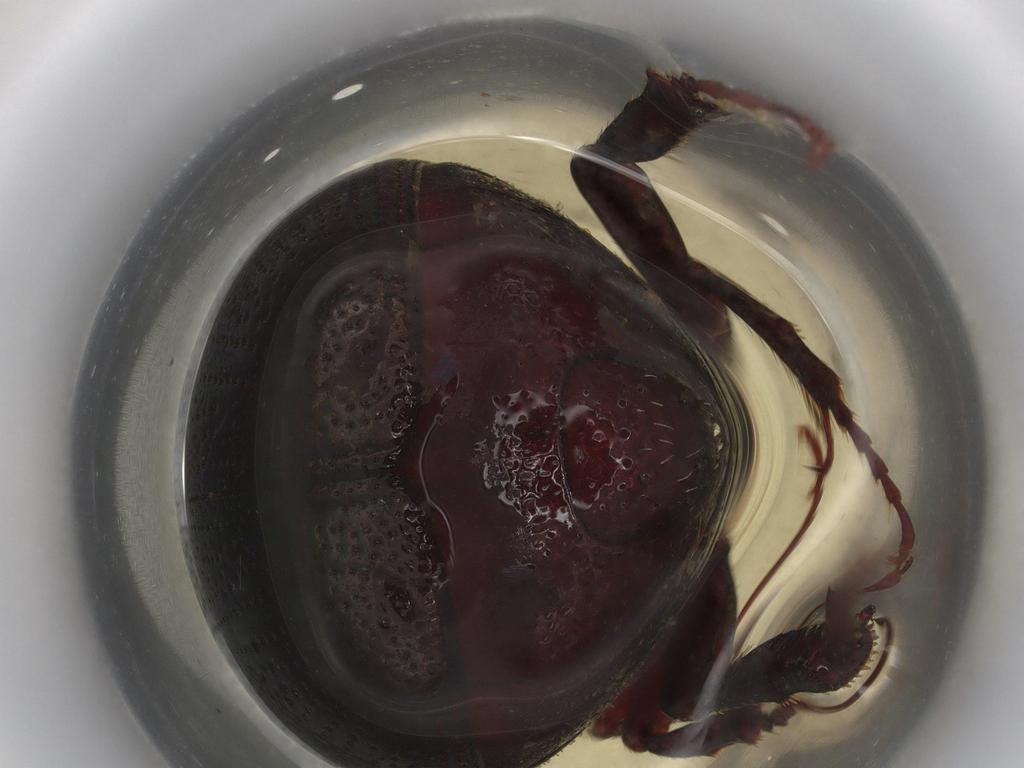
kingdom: Animalia
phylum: Arthropoda
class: Insecta
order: Coleoptera
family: Scarabaeidae
